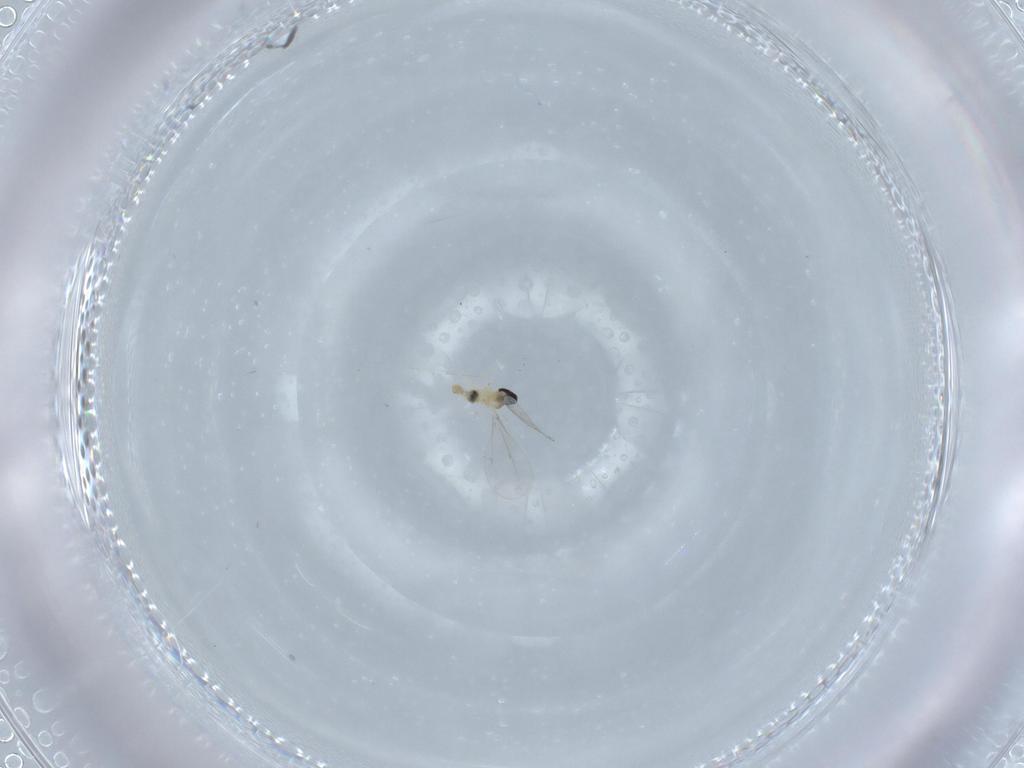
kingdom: Animalia
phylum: Arthropoda
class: Insecta
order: Diptera
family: Cecidomyiidae
